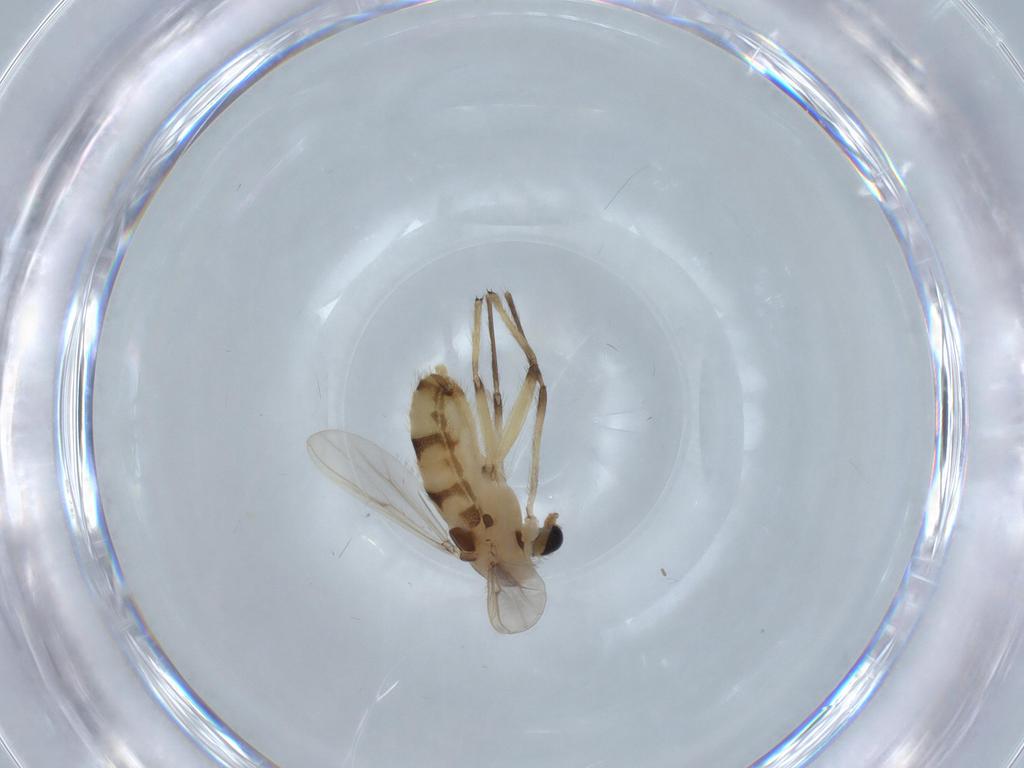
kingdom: Animalia
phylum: Arthropoda
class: Insecta
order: Diptera
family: Chironomidae
